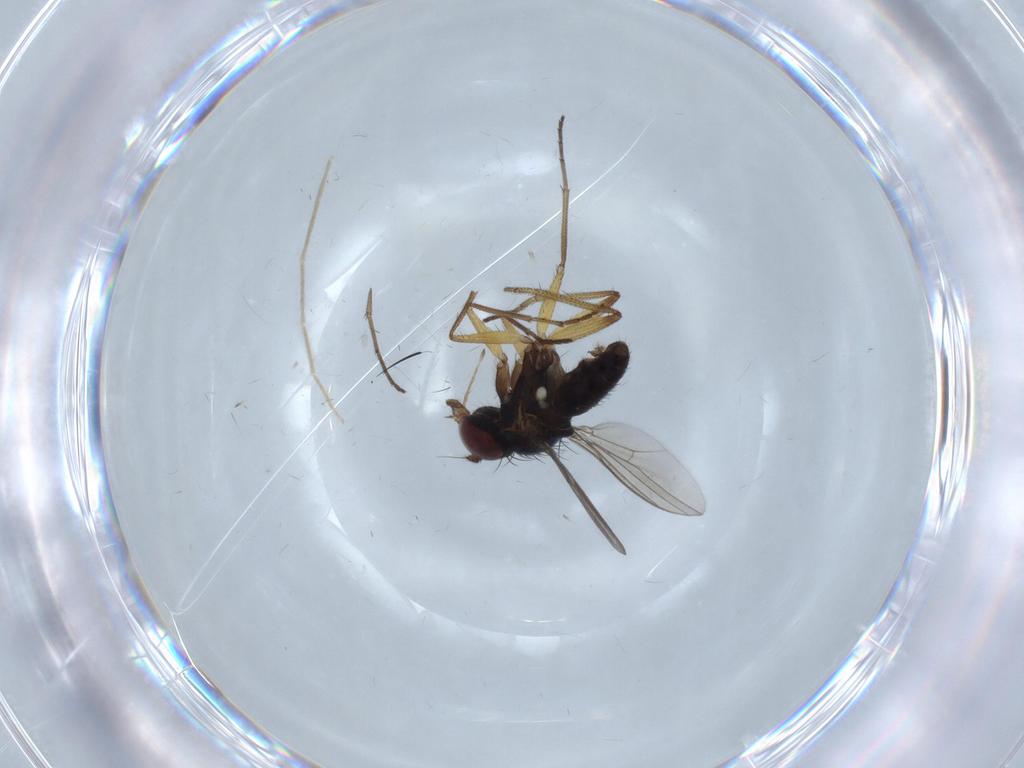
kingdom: Animalia
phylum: Arthropoda
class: Insecta
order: Diptera
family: Dolichopodidae
